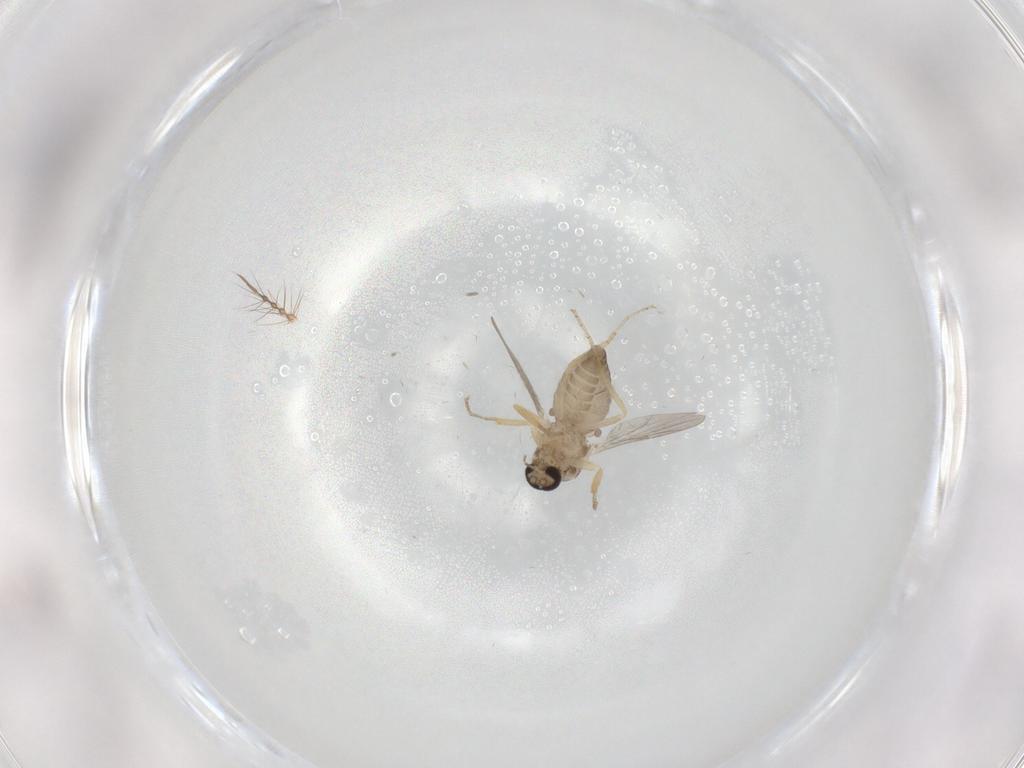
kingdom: Animalia
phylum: Arthropoda
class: Insecta
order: Diptera
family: Ceratopogonidae
